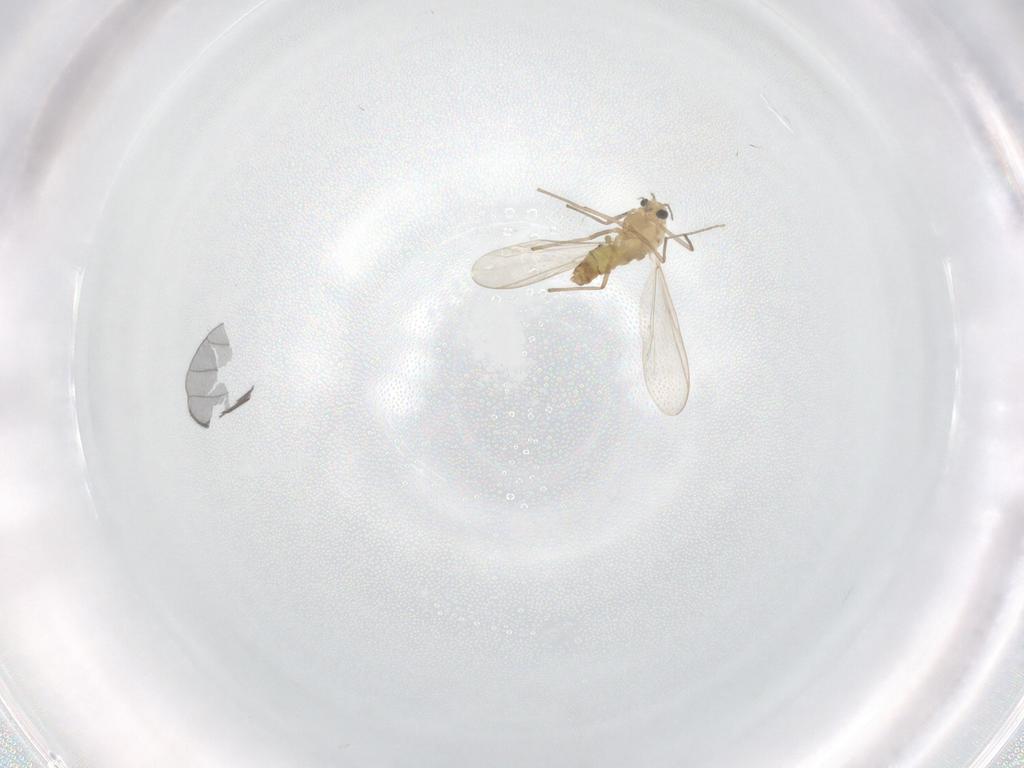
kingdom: Animalia
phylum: Arthropoda
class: Insecta
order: Diptera
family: Chironomidae
